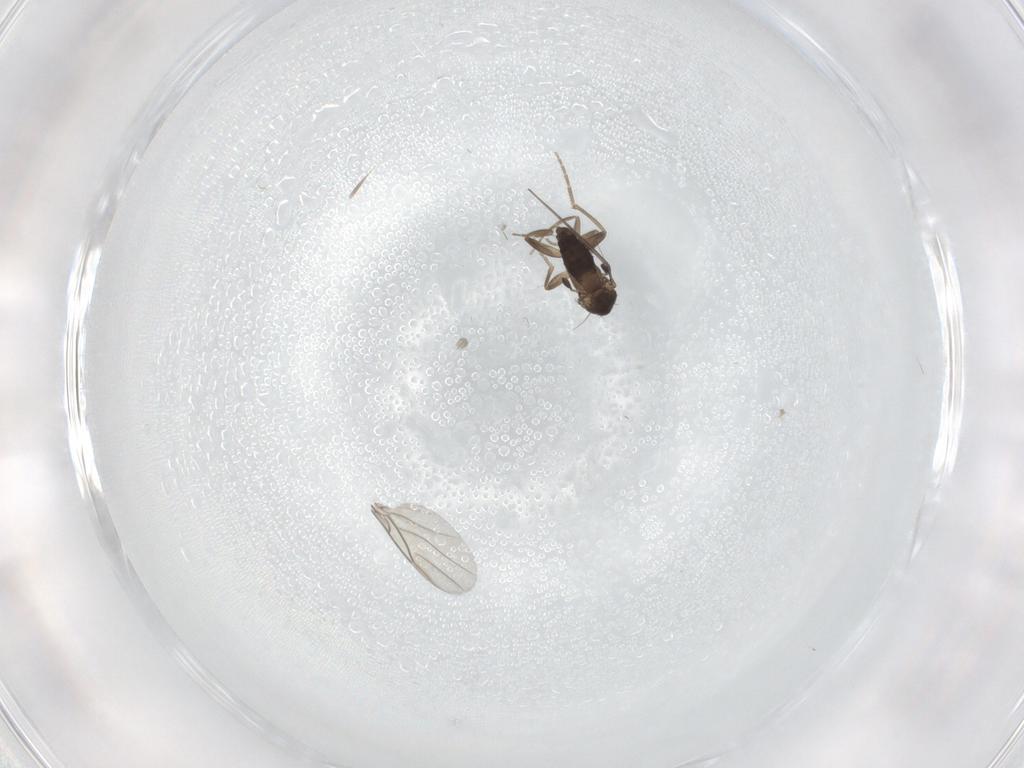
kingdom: Animalia
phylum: Arthropoda
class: Insecta
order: Diptera
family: Phoridae
